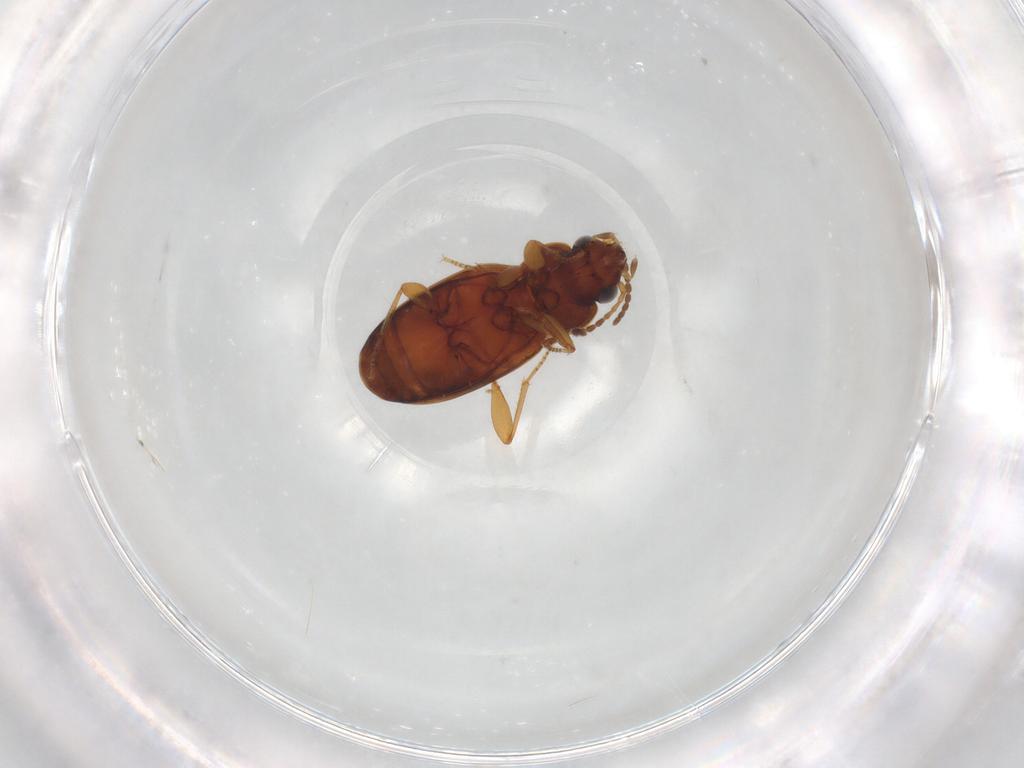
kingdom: Animalia
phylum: Arthropoda
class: Insecta
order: Coleoptera
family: Carabidae
